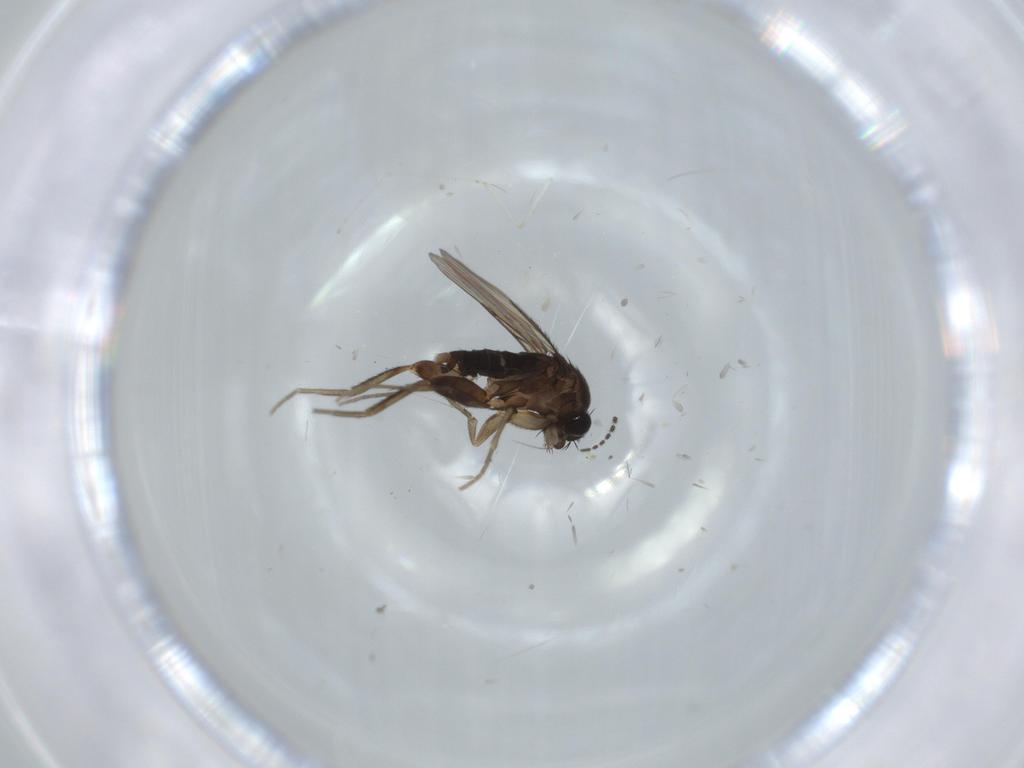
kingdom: Animalia
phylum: Arthropoda
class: Insecta
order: Diptera
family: Phoridae
